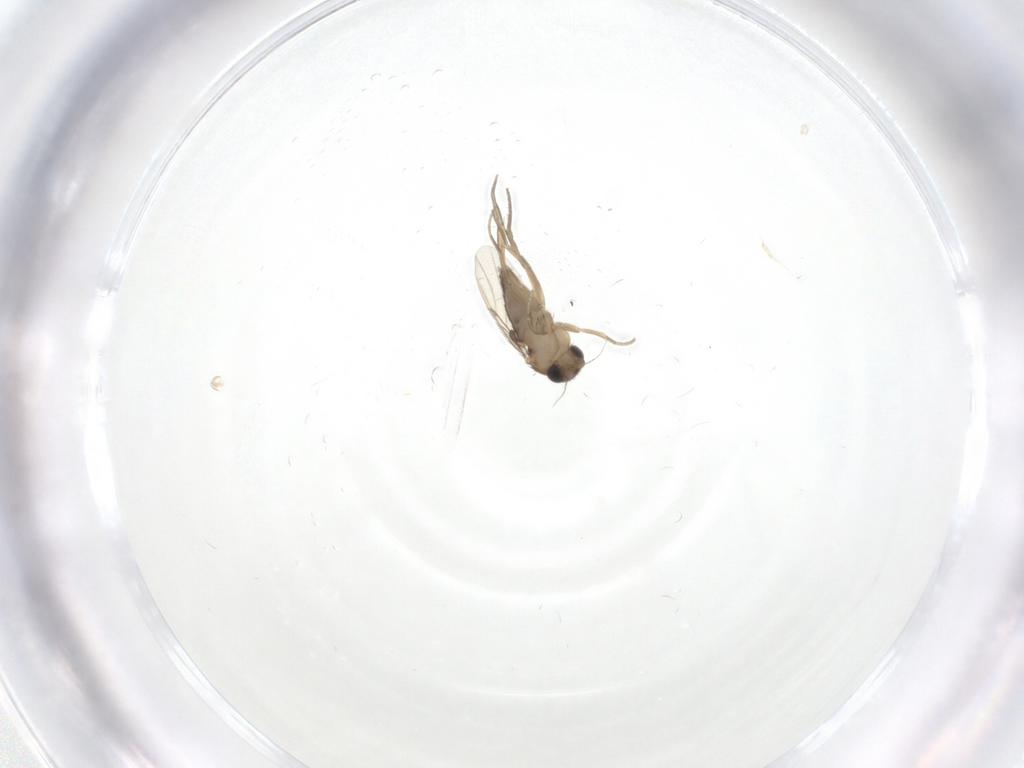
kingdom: Animalia
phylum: Arthropoda
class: Insecta
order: Diptera
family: Phoridae
